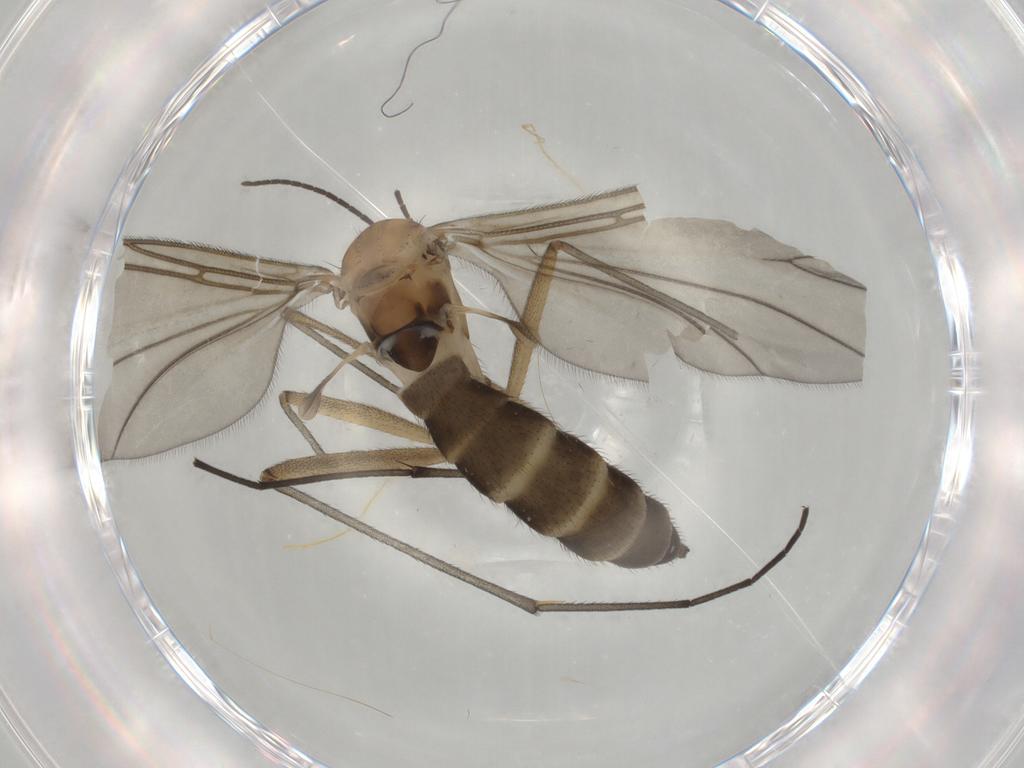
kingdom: Animalia
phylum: Arthropoda
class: Insecta
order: Diptera
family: Sciaridae
